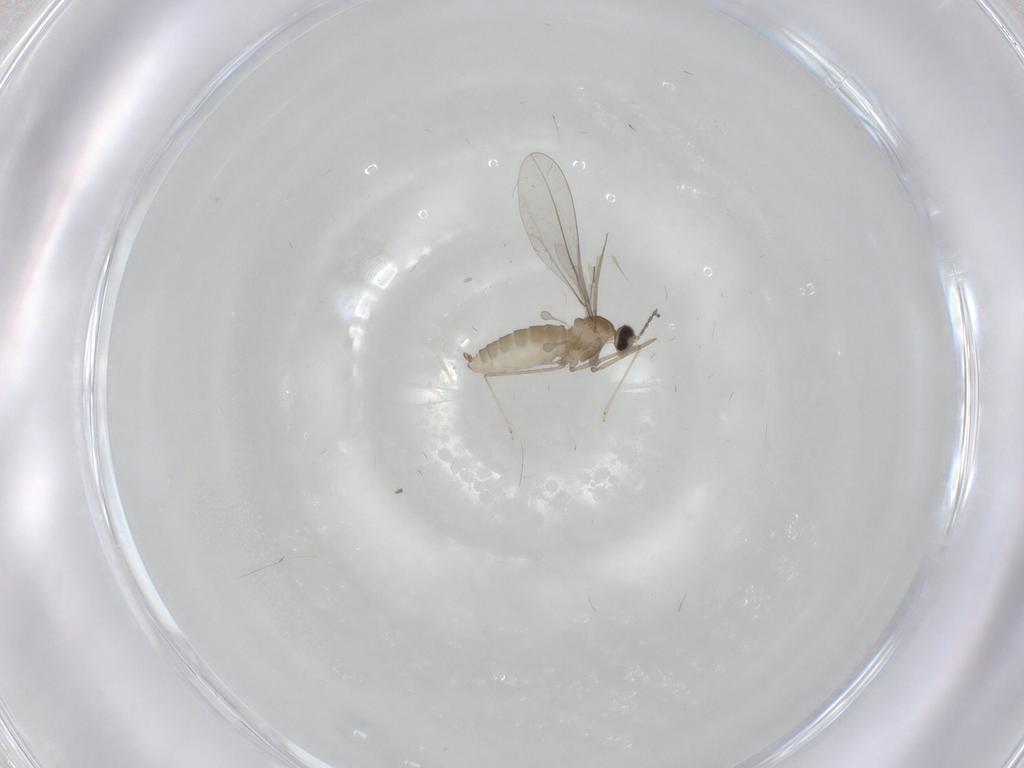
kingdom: Animalia
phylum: Arthropoda
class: Insecta
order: Diptera
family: Cecidomyiidae
